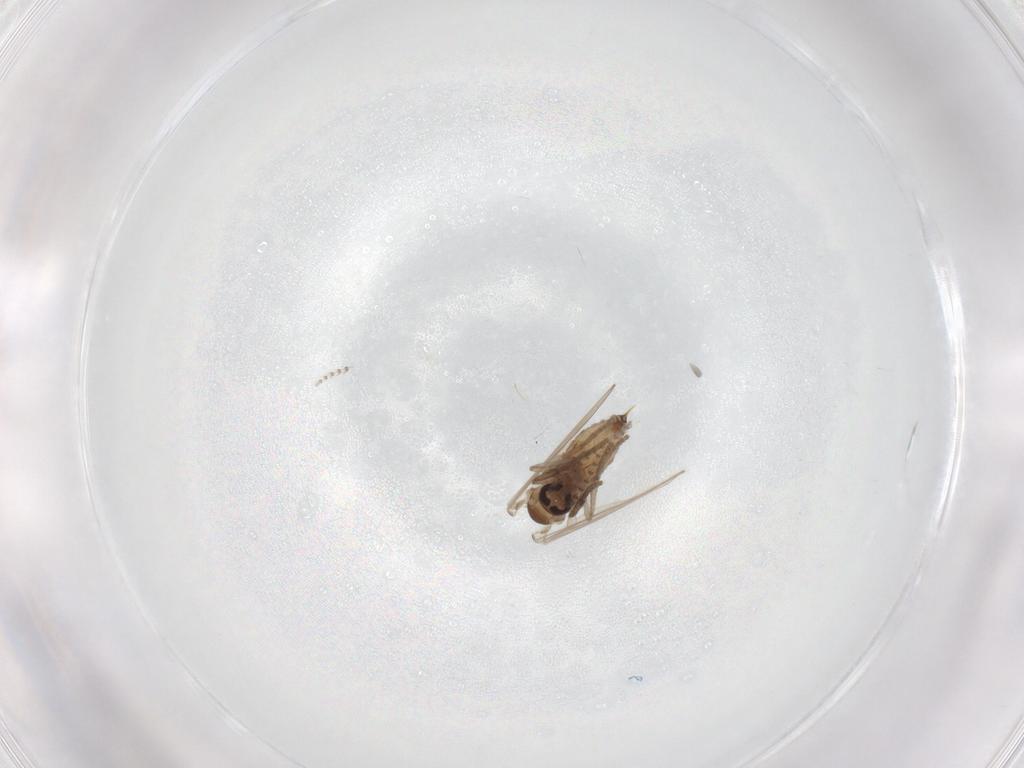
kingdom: Animalia
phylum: Arthropoda
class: Insecta
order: Diptera
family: Psychodidae
